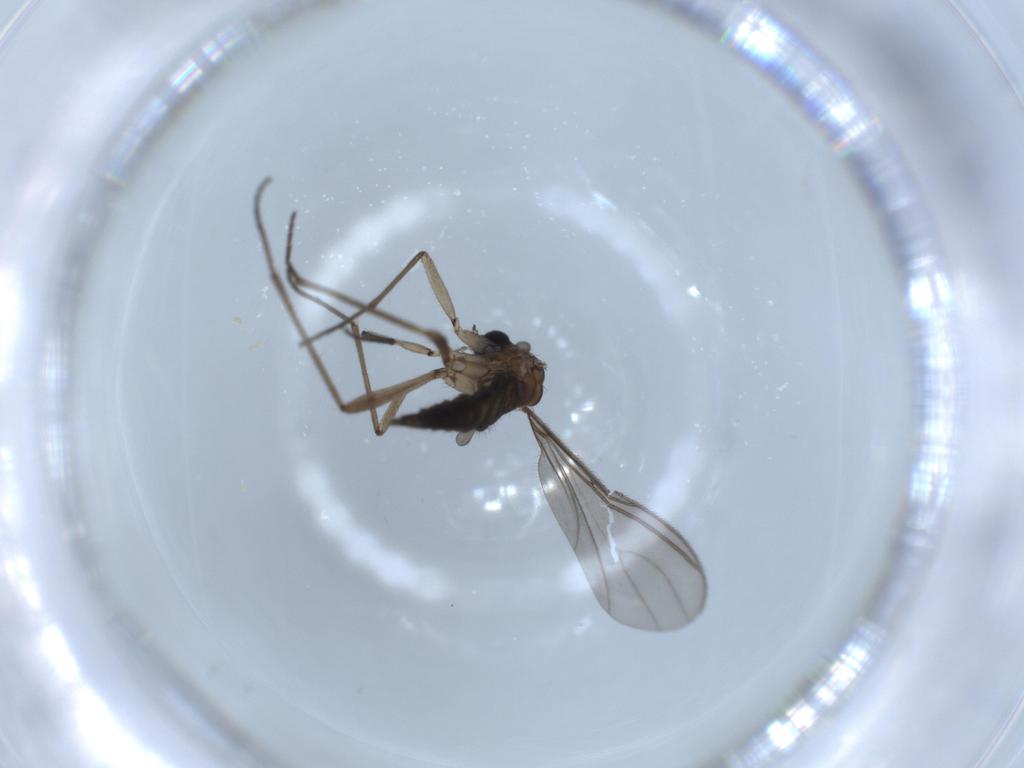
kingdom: Animalia
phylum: Arthropoda
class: Insecta
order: Diptera
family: Sciaridae
